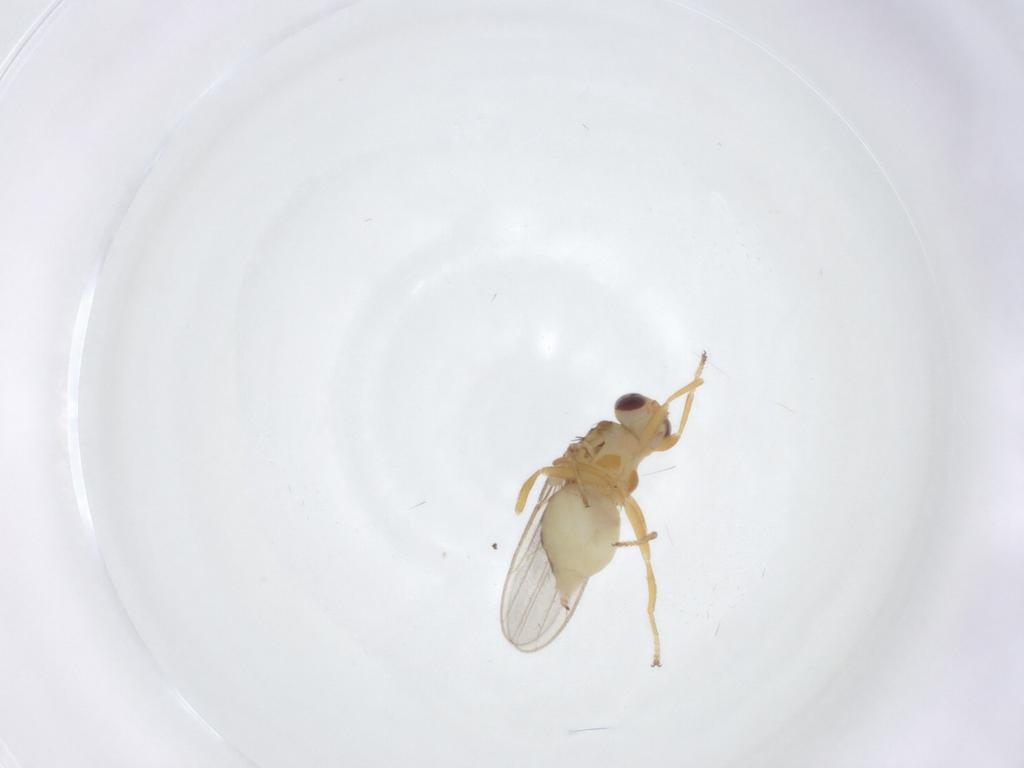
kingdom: Animalia
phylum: Arthropoda
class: Insecta
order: Diptera
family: Chloropidae
